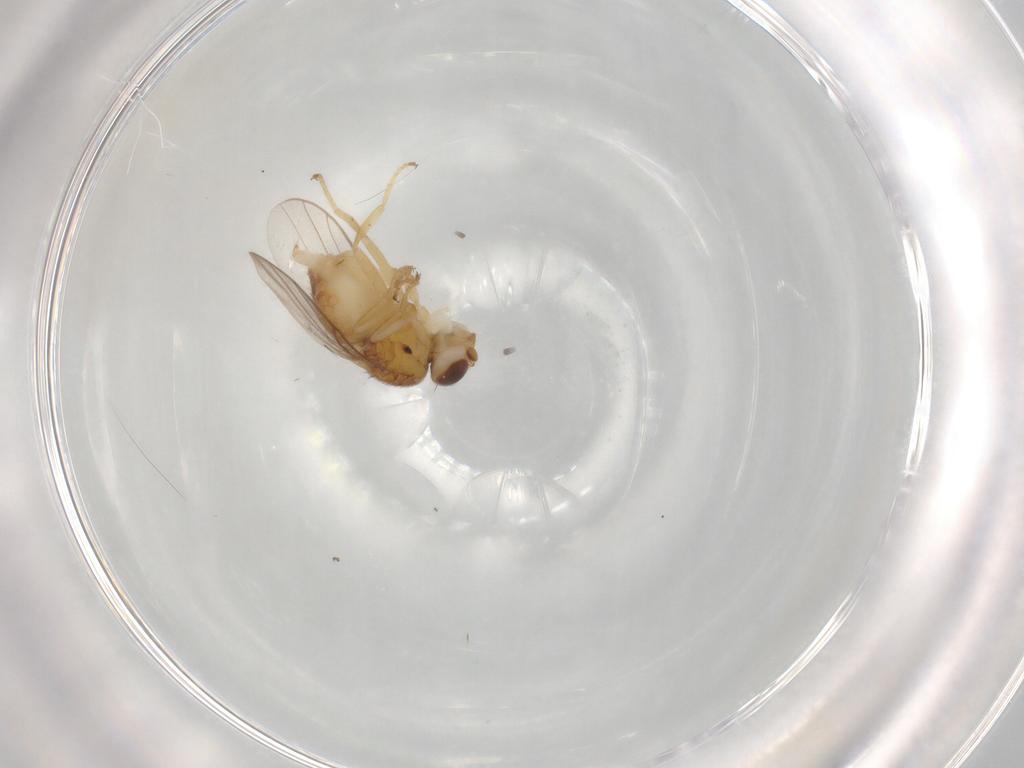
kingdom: Animalia
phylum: Arthropoda
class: Insecta
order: Diptera
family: Chloropidae
